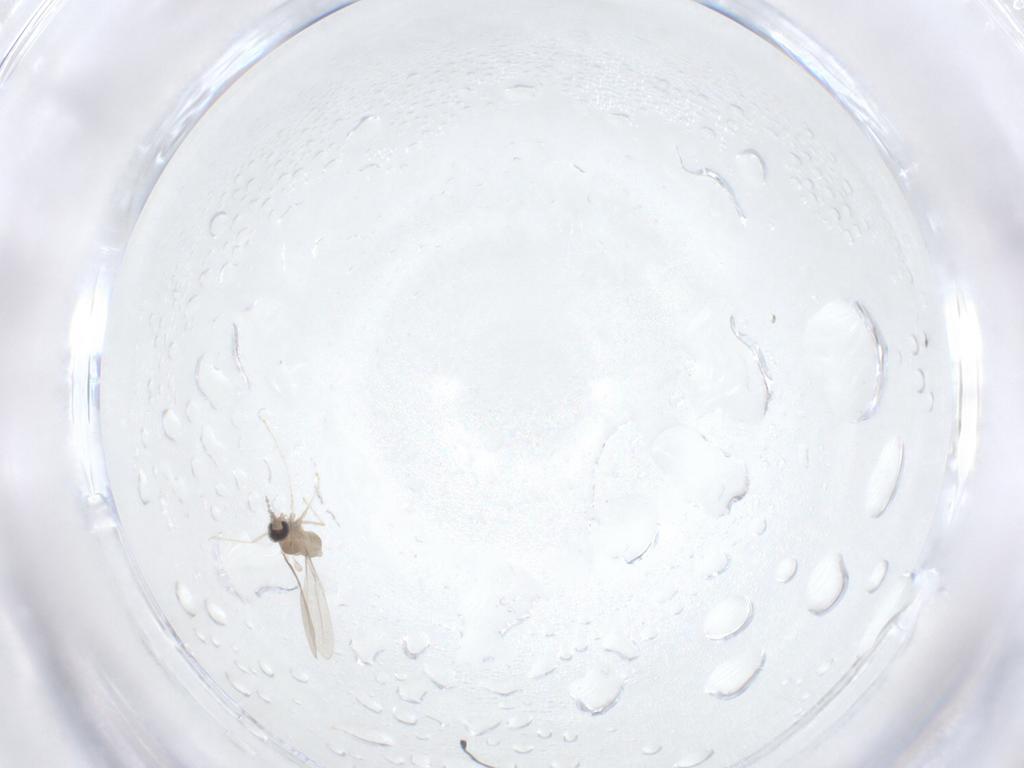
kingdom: Animalia
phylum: Arthropoda
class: Insecta
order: Diptera
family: Cecidomyiidae
